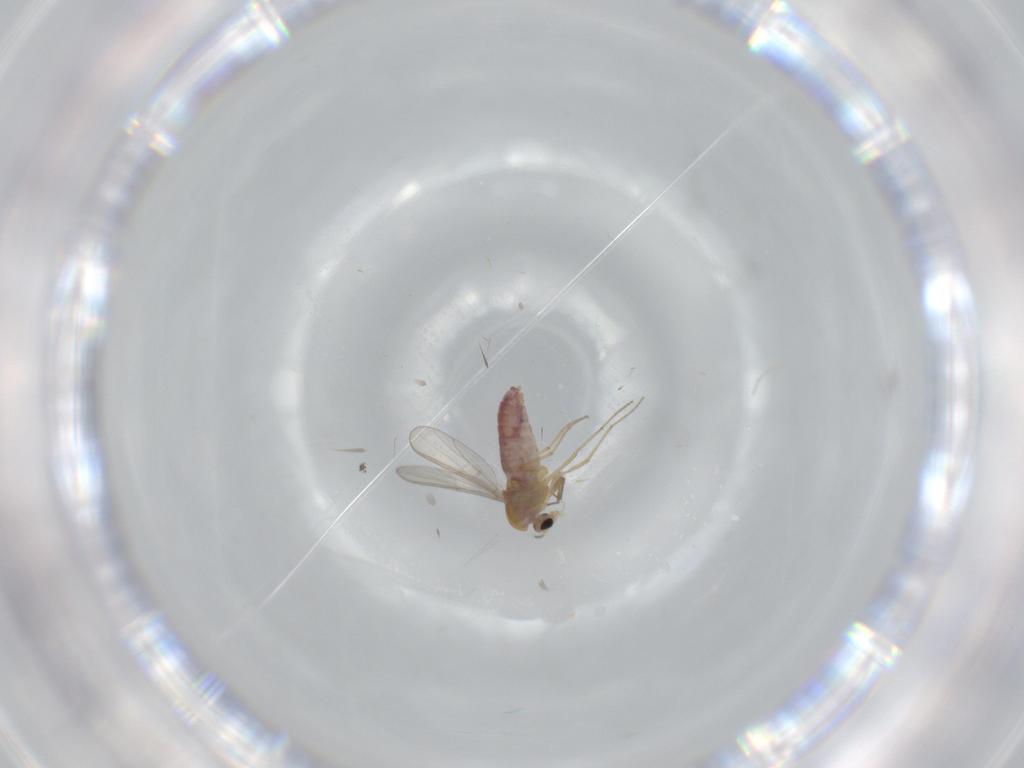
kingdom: Animalia
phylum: Arthropoda
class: Insecta
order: Diptera
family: Chironomidae
